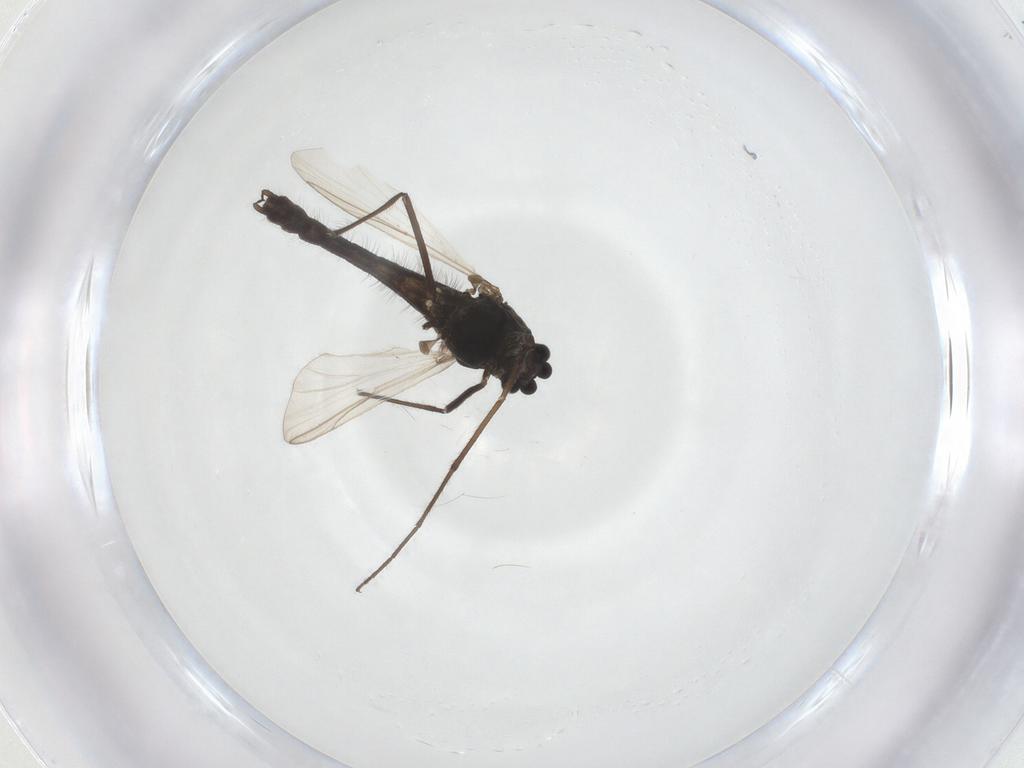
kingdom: Animalia
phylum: Arthropoda
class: Insecta
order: Diptera
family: Chironomidae
